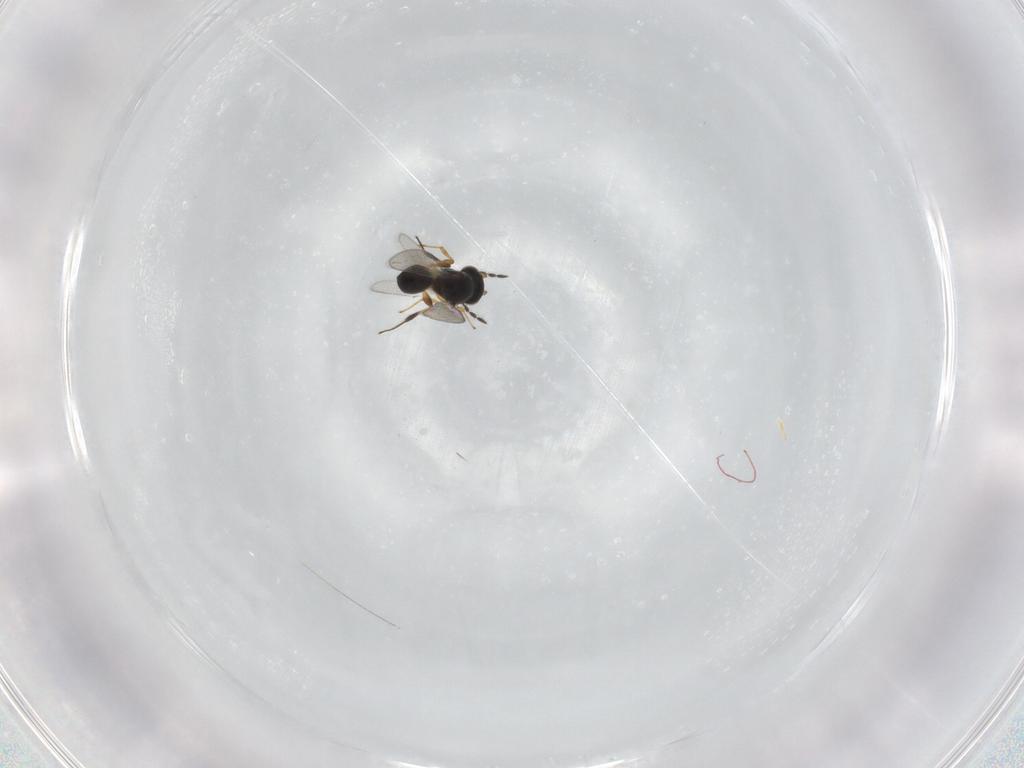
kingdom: Animalia
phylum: Arthropoda
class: Insecta
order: Hymenoptera
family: Platygastridae
